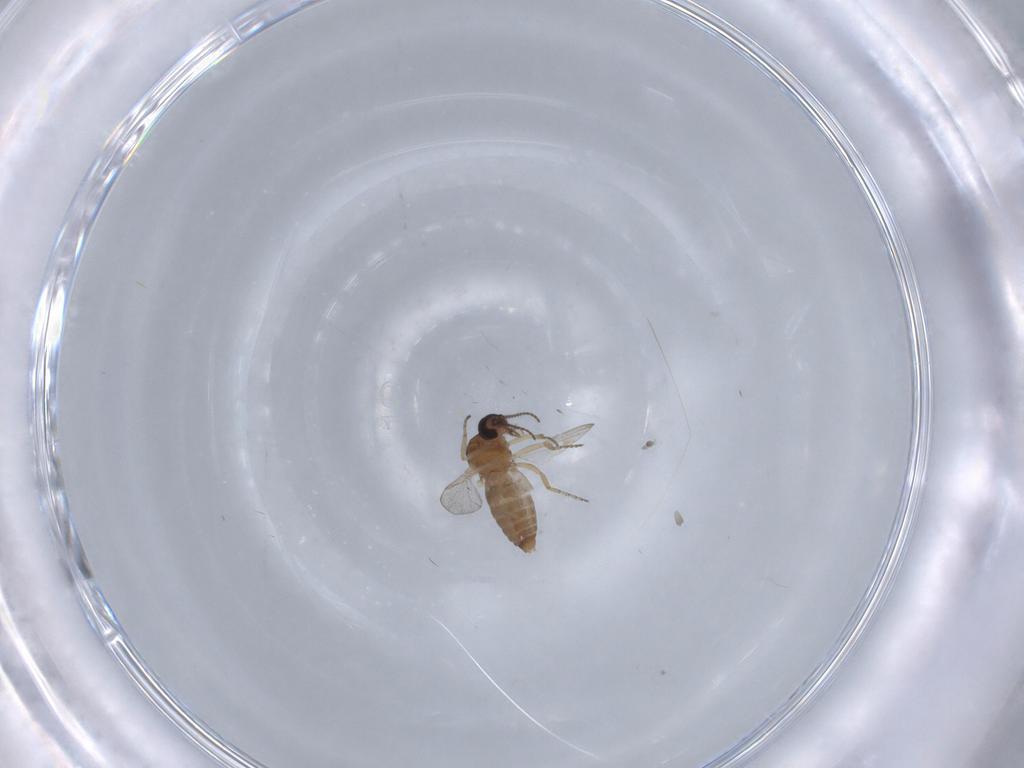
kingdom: Animalia
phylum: Arthropoda
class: Insecta
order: Diptera
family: Ceratopogonidae
